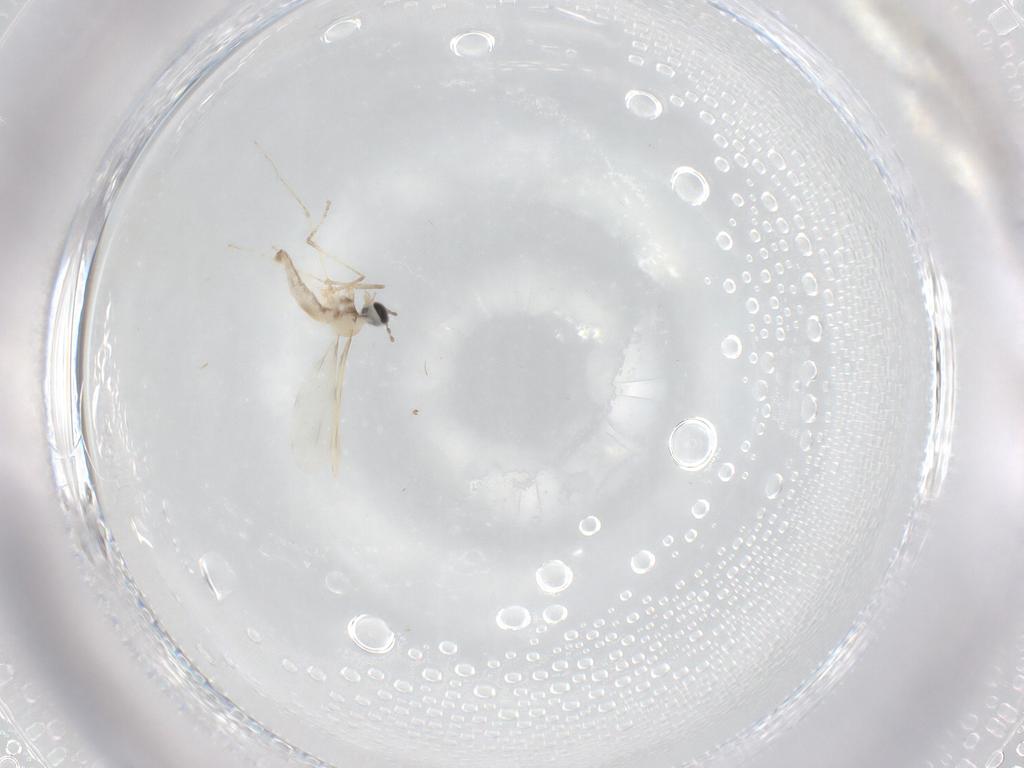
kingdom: Animalia
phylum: Arthropoda
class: Insecta
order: Diptera
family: Cecidomyiidae
